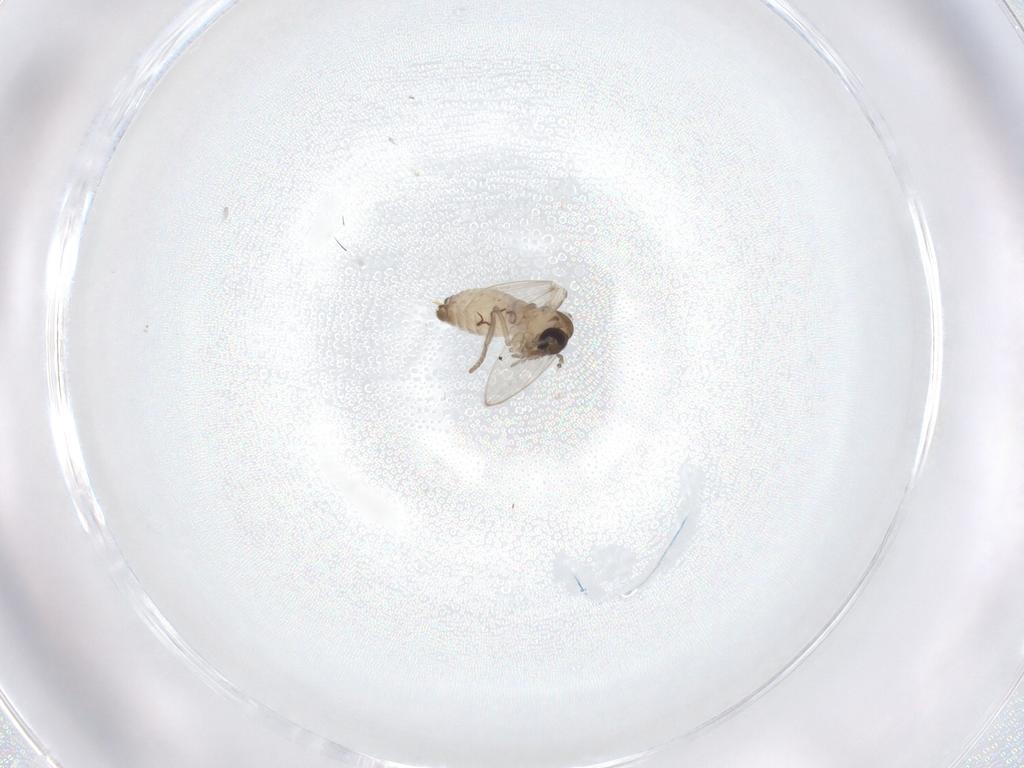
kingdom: Animalia
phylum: Arthropoda
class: Insecta
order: Diptera
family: Psychodidae
